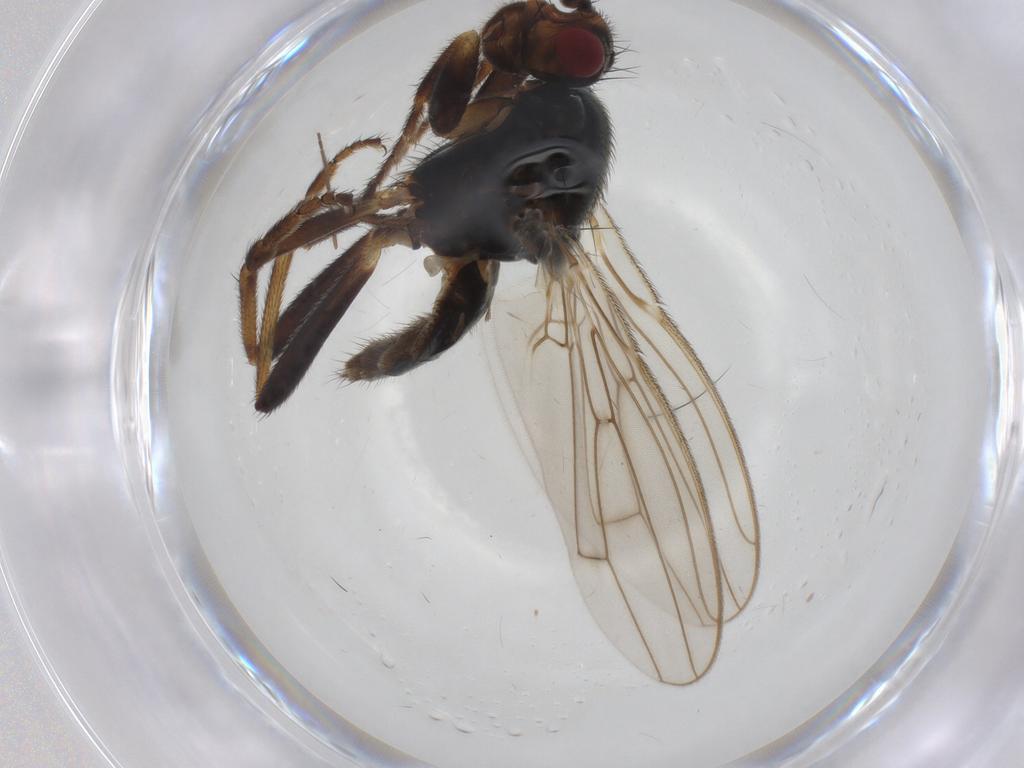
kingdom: Animalia
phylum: Arthropoda
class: Insecta
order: Diptera
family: Sphaeroceridae
